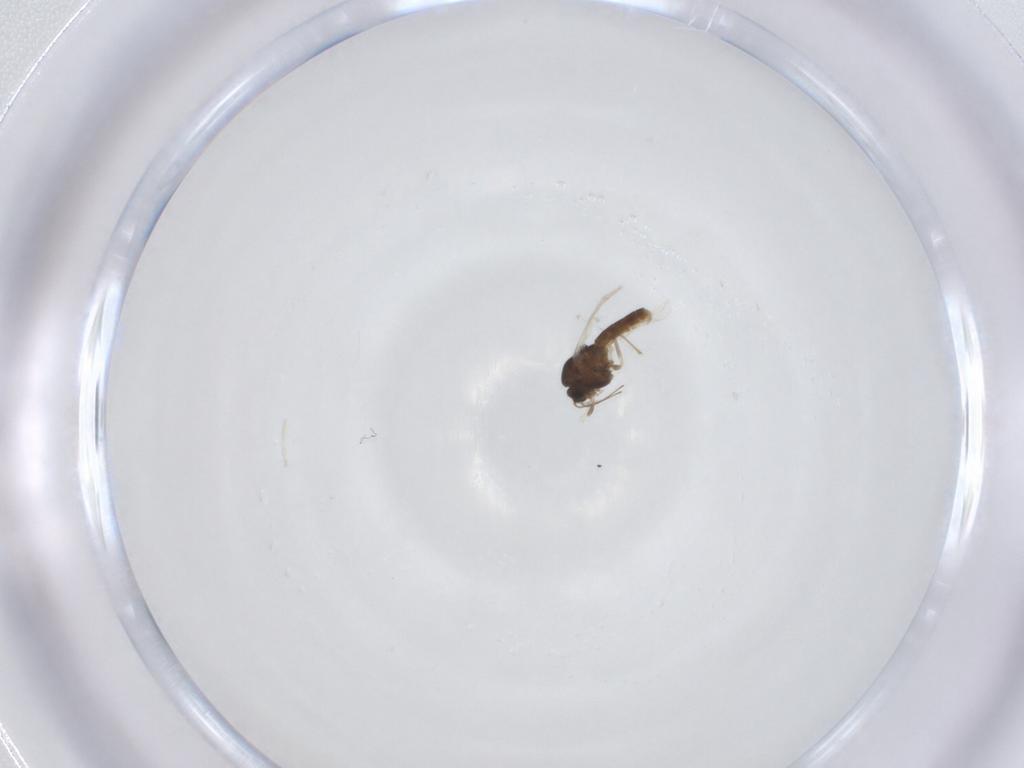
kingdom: Animalia
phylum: Arthropoda
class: Insecta
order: Diptera
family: Chironomidae
